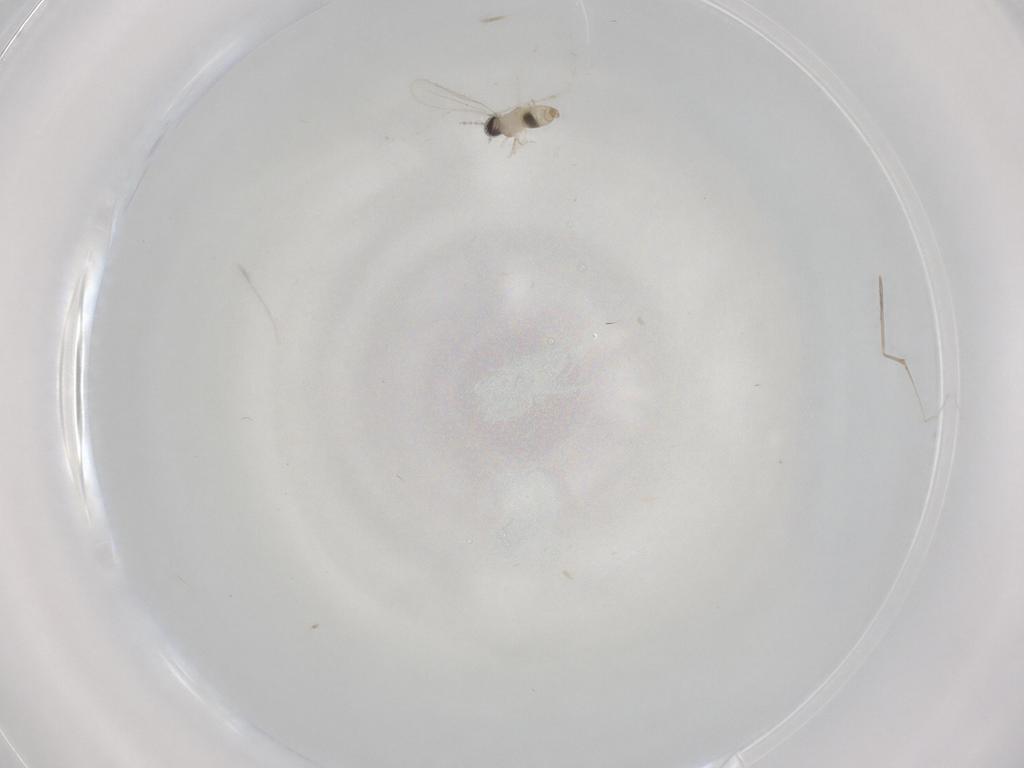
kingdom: Animalia
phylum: Arthropoda
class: Insecta
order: Diptera
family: Cecidomyiidae
